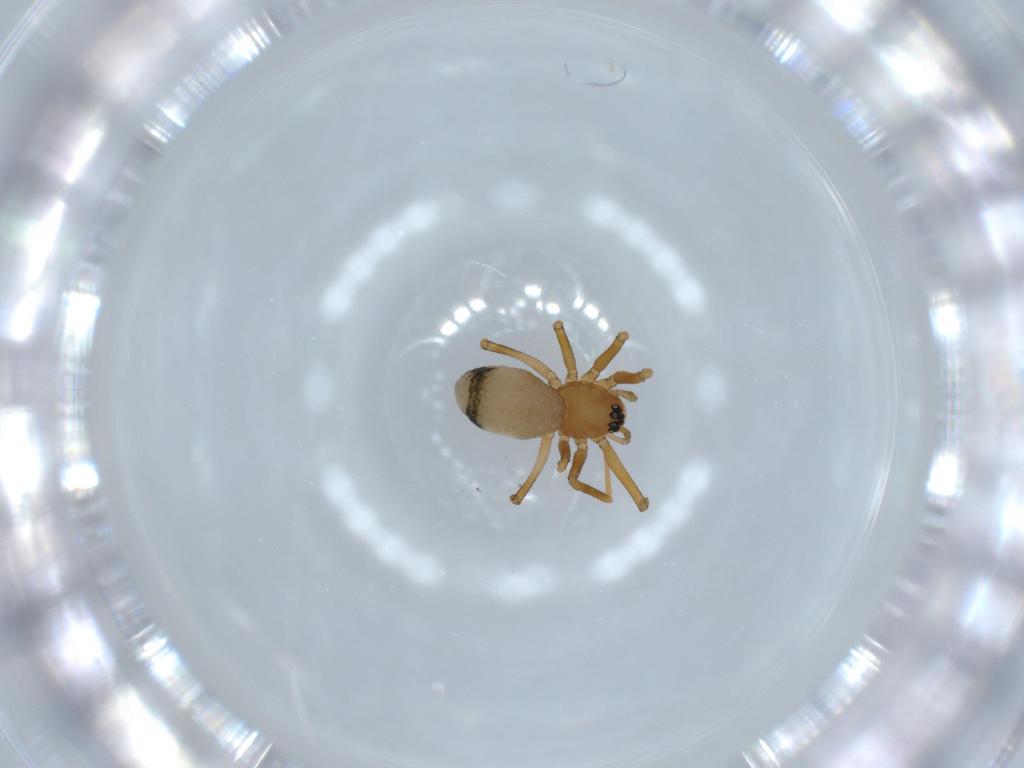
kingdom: Animalia
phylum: Arthropoda
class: Arachnida
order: Araneae
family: Linyphiidae
